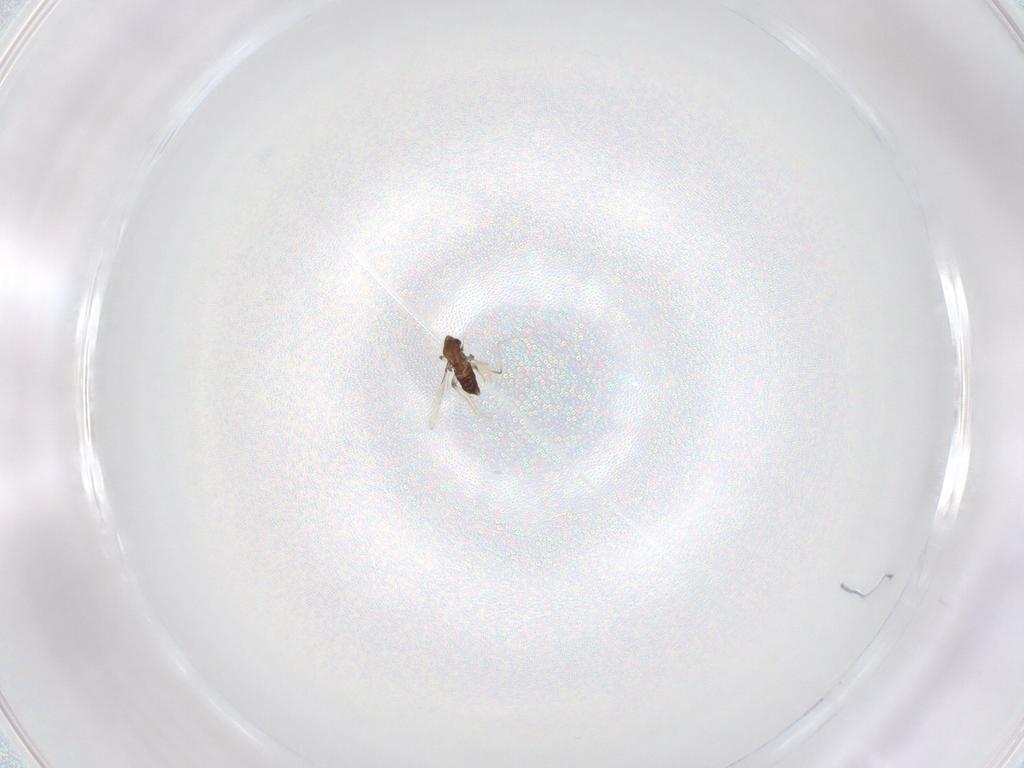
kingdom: Animalia
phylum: Arthropoda
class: Insecta
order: Diptera
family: Chironomidae
